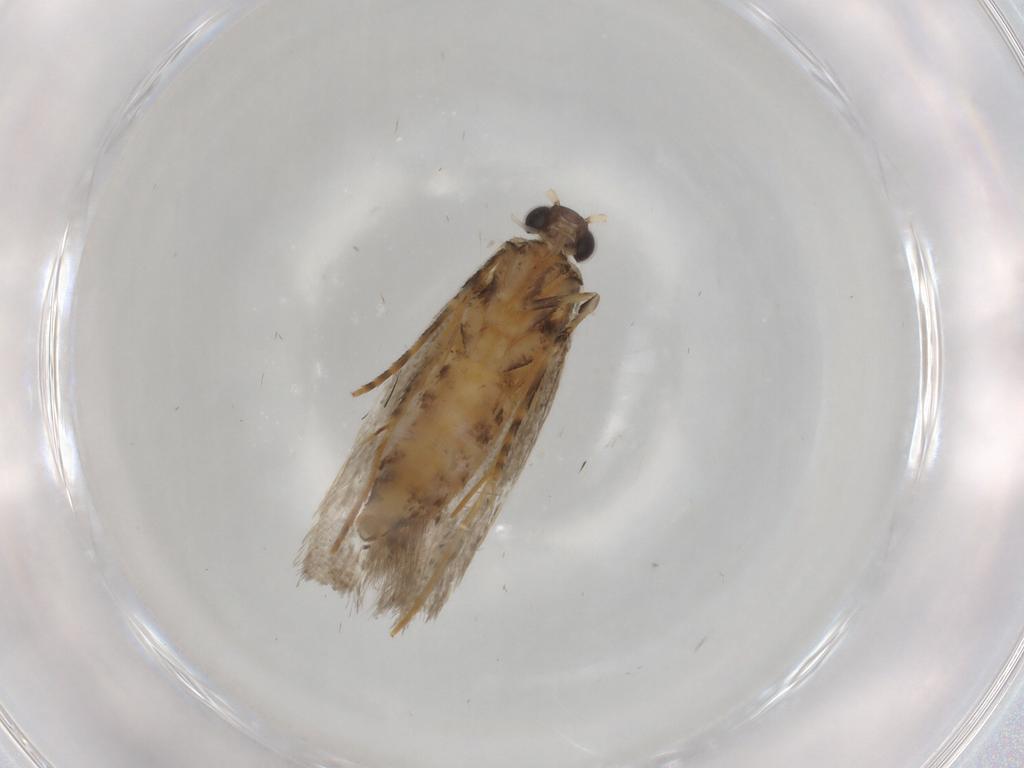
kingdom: Animalia
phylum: Arthropoda
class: Insecta
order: Lepidoptera
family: Tineidae
